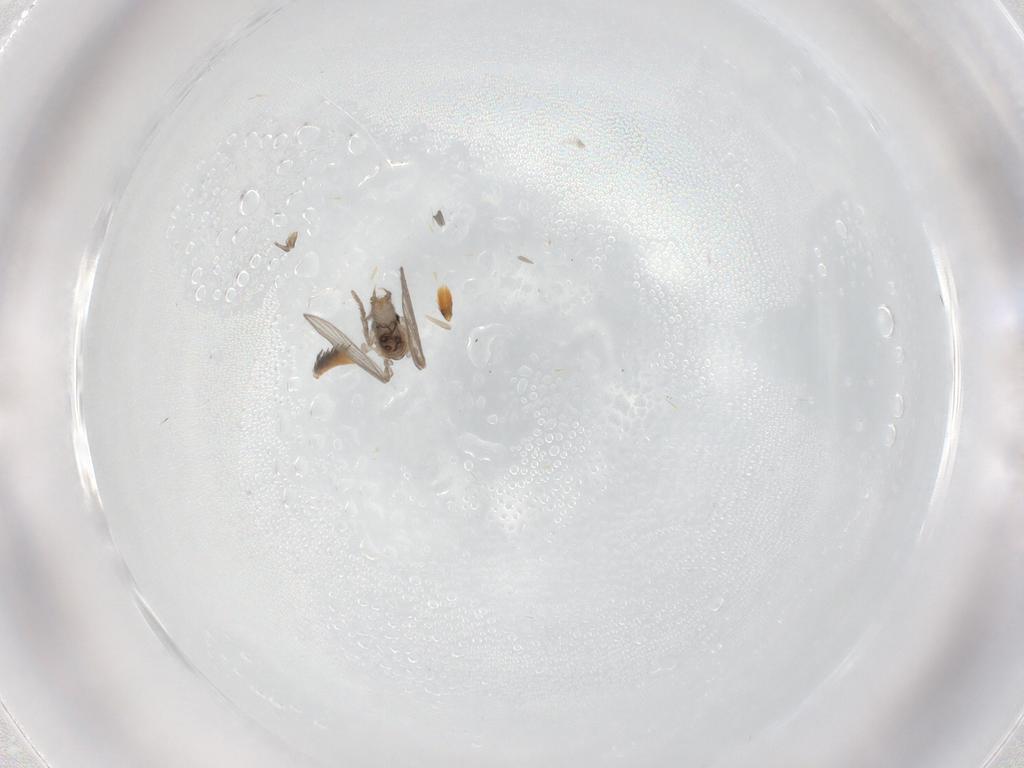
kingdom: Animalia
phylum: Arthropoda
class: Insecta
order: Diptera
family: Psychodidae
